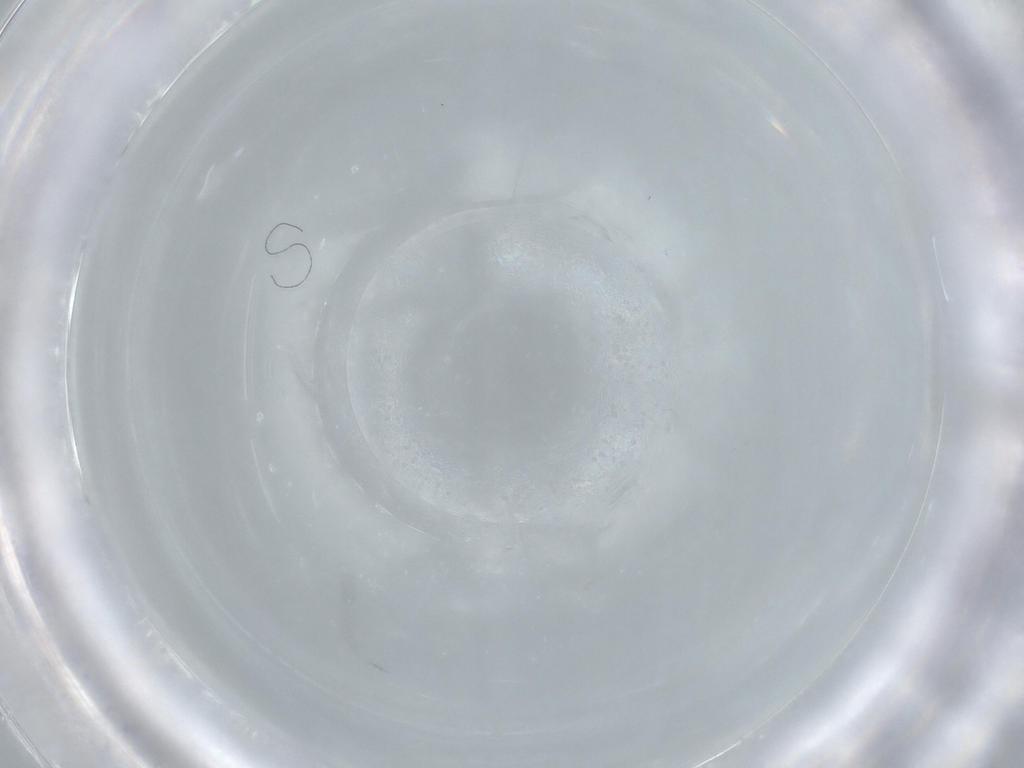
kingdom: Animalia
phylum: Arthropoda
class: Insecta
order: Diptera
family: Milichiidae
